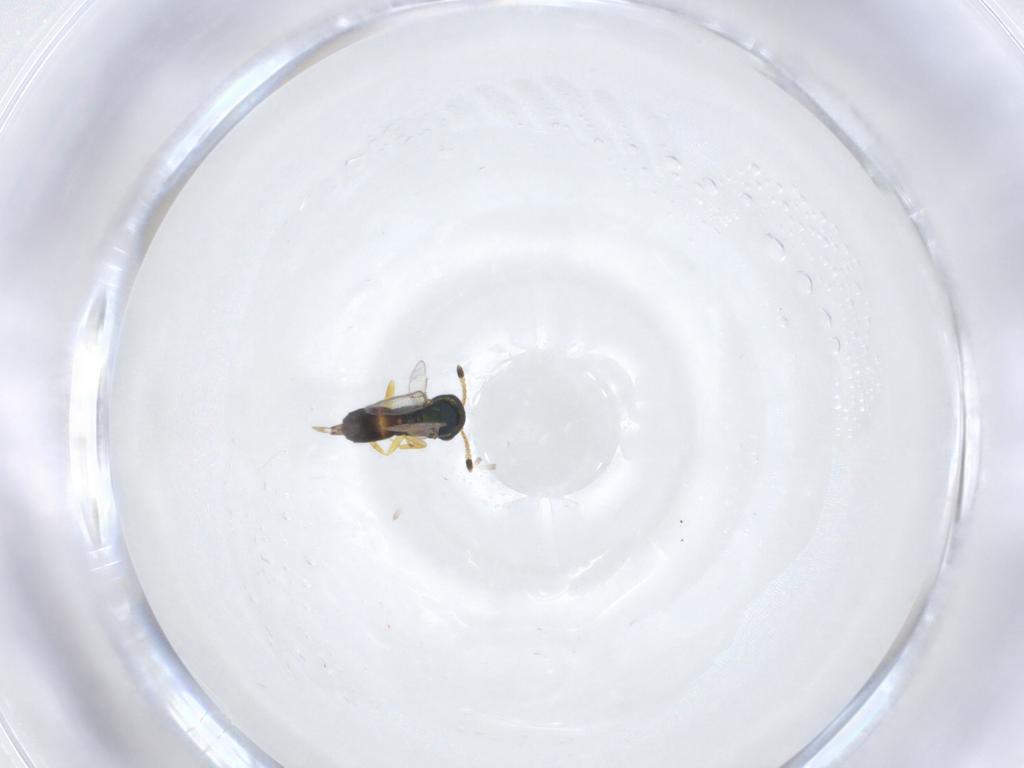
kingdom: Animalia
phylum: Arthropoda
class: Insecta
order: Hymenoptera
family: Pteromalidae
